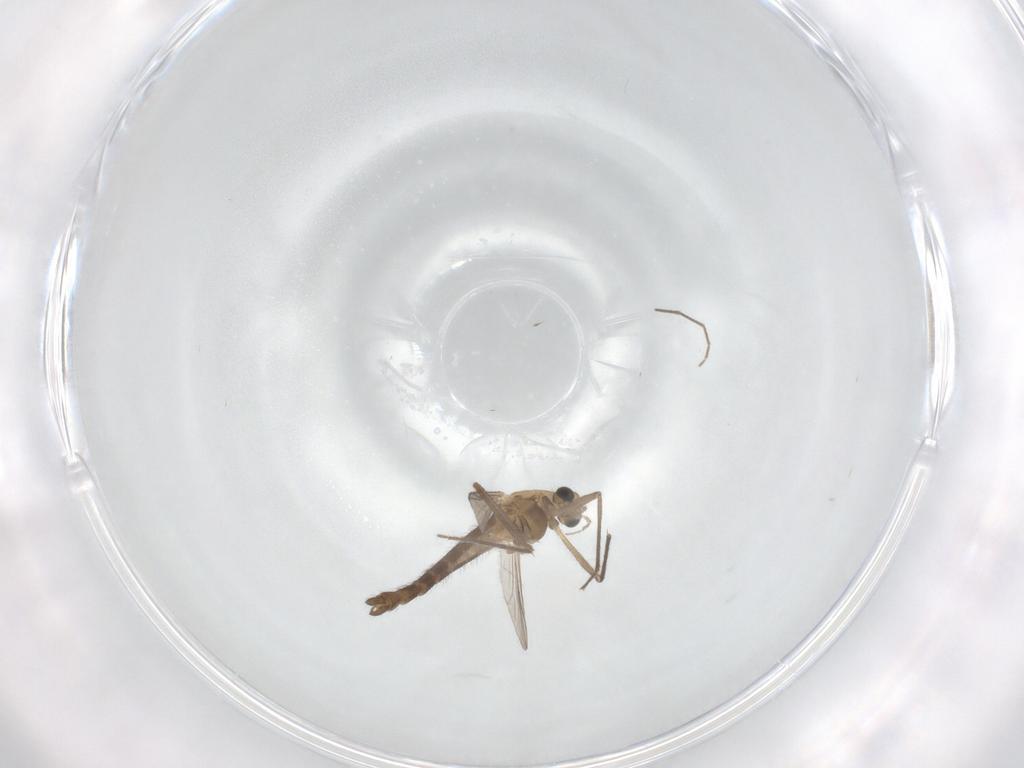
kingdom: Animalia
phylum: Arthropoda
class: Insecta
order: Diptera
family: Chironomidae
